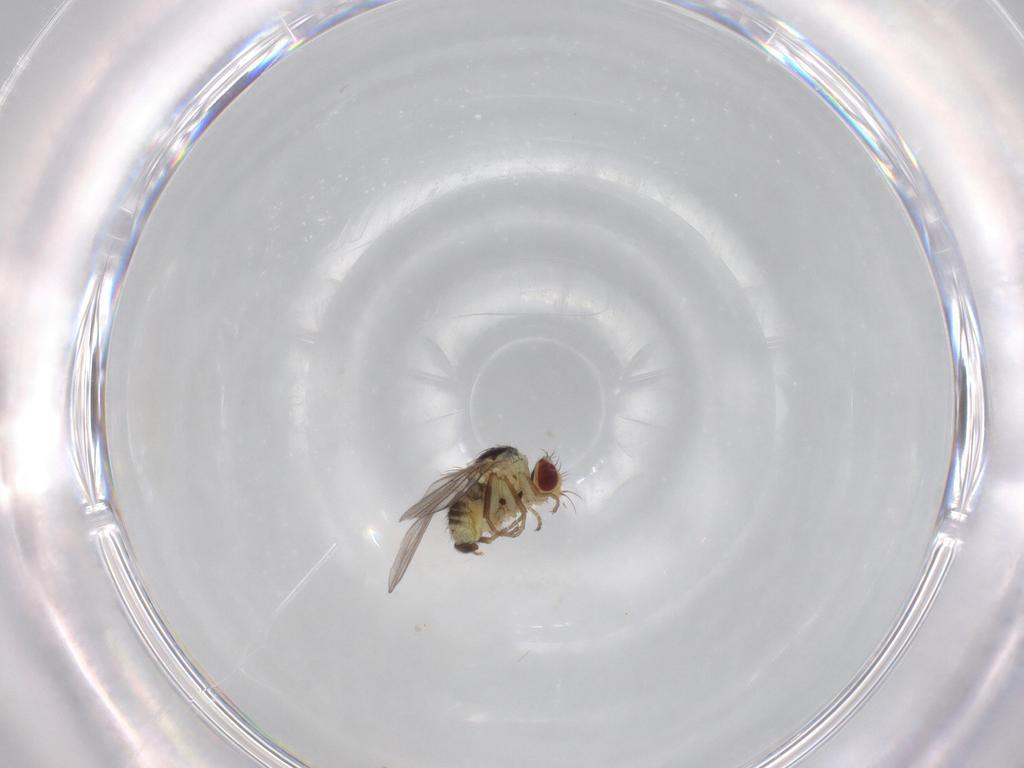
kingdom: Animalia
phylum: Arthropoda
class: Insecta
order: Diptera
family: Agromyzidae
